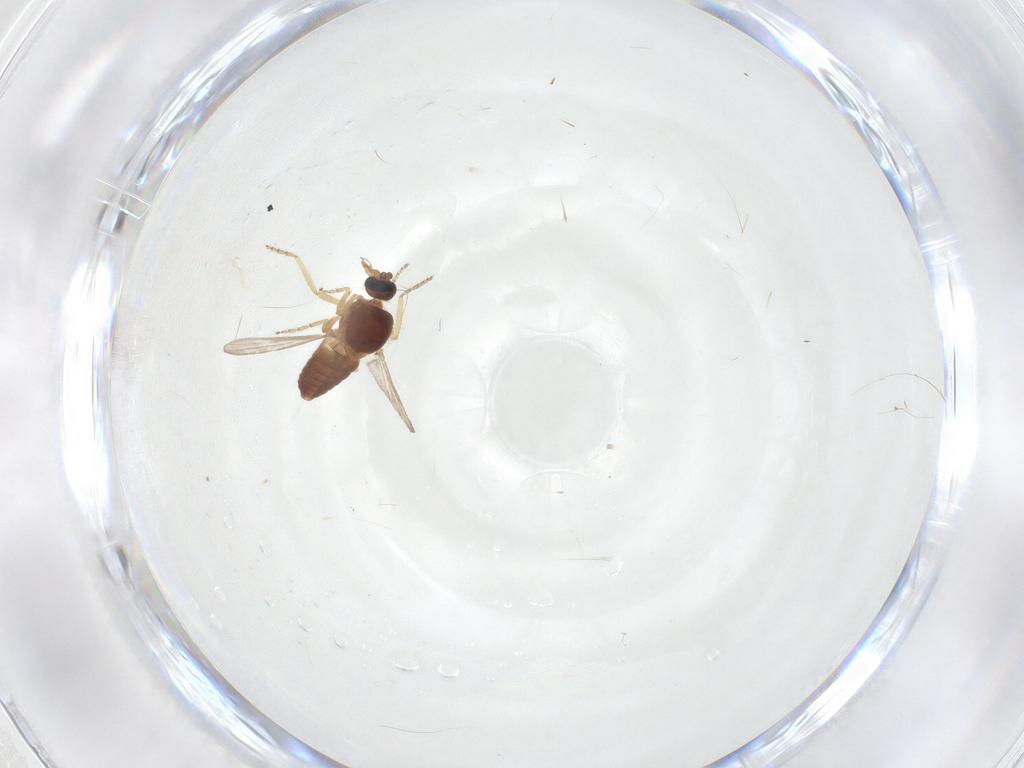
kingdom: Animalia
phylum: Arthropoda
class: Insecta
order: Diptera
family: Ceratopogonidae
